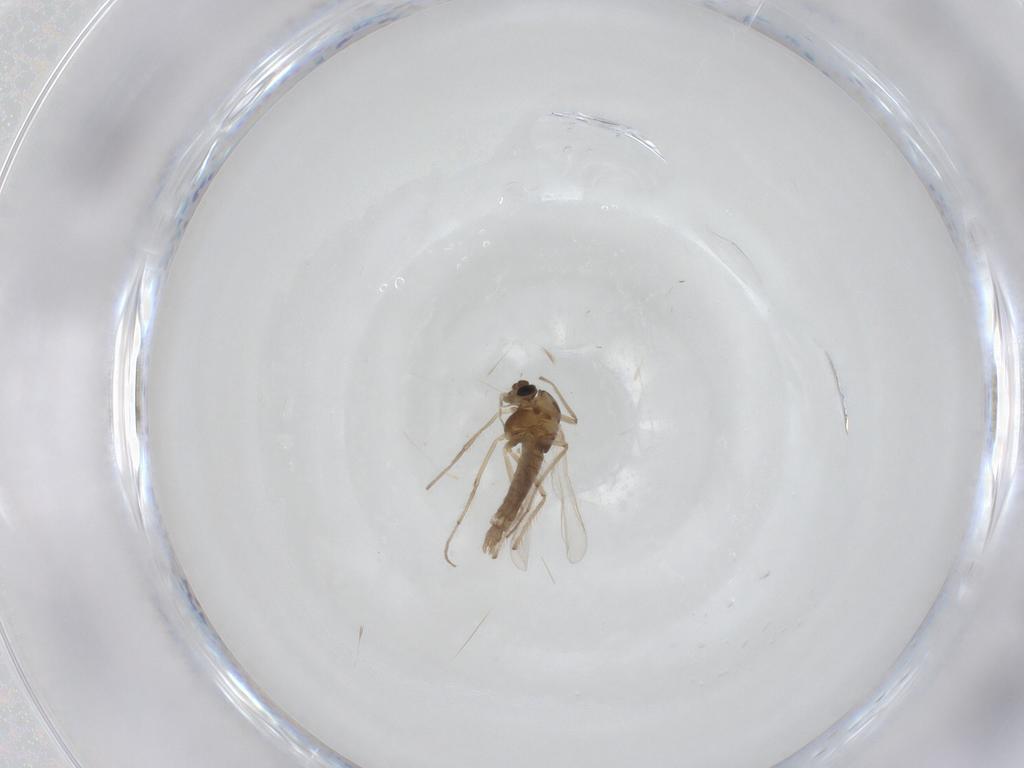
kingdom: Animalia
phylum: Arthropoda
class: Insecta
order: Diptera
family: Chironomidae
